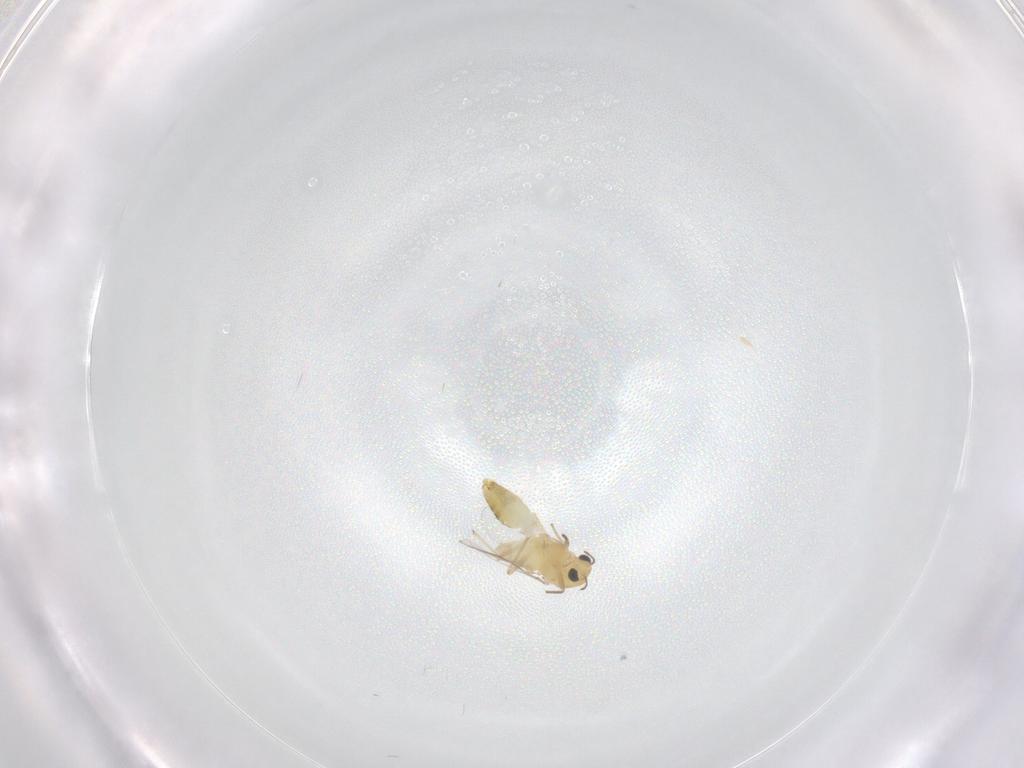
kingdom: Animalia
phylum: Arthropoda
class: Insecta
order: Diptera
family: Chironomidae
